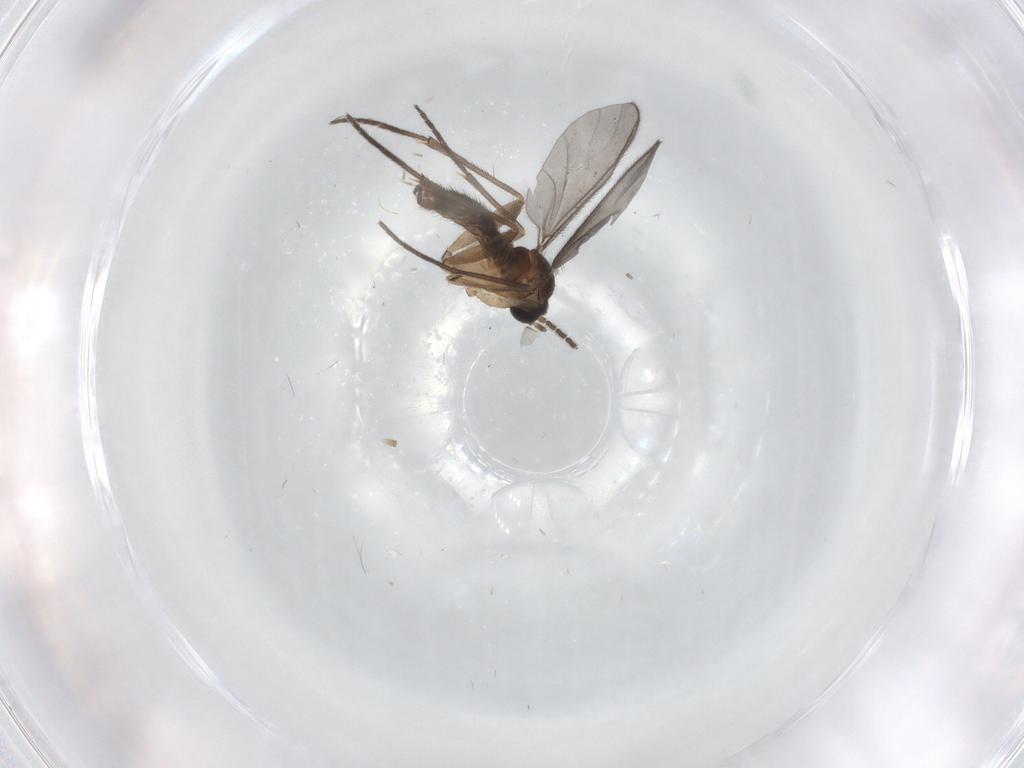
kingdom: Animalia
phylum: Arthropoda
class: Insecta
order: Diptera
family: Sciaridae
